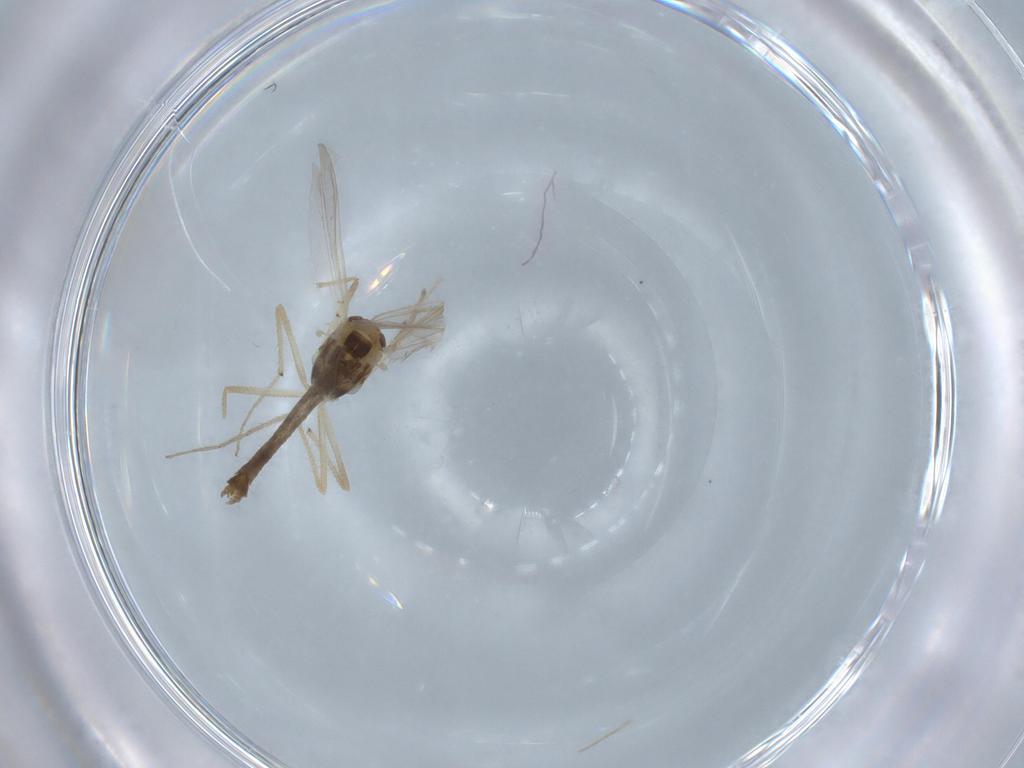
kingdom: Animalia
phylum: Arthropoda
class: Insecta
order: Diptera
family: Chironomidae
